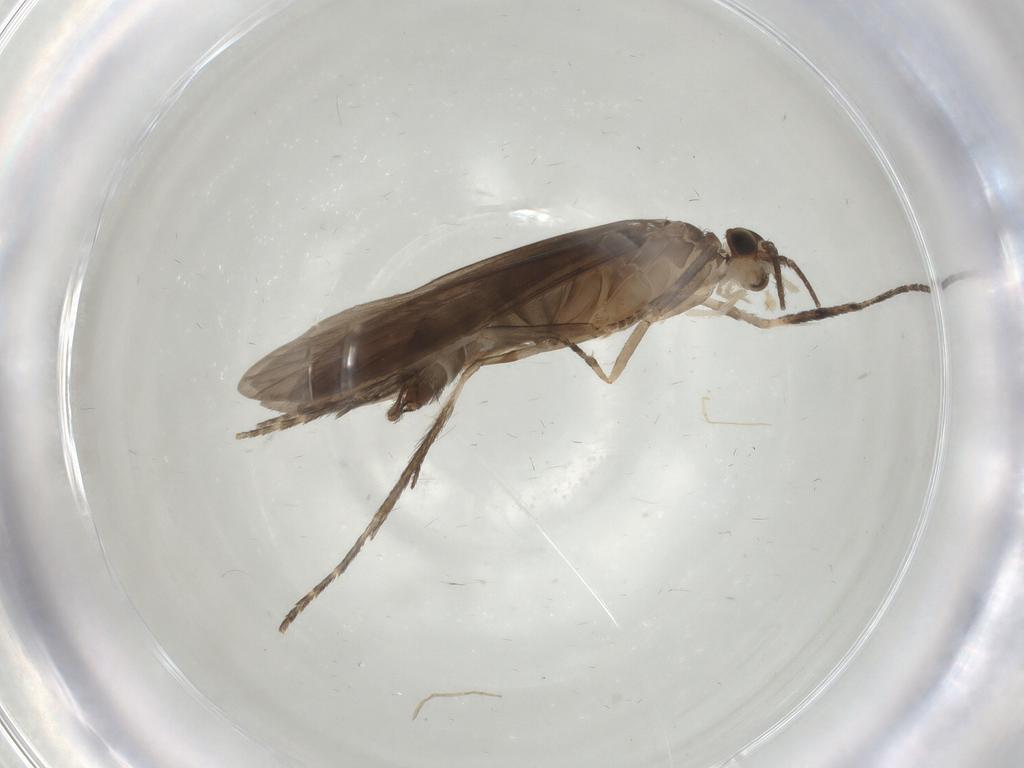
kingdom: Animalia
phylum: Arthropoda
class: Insecta
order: Trichoptera
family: Xiphocentronidae
